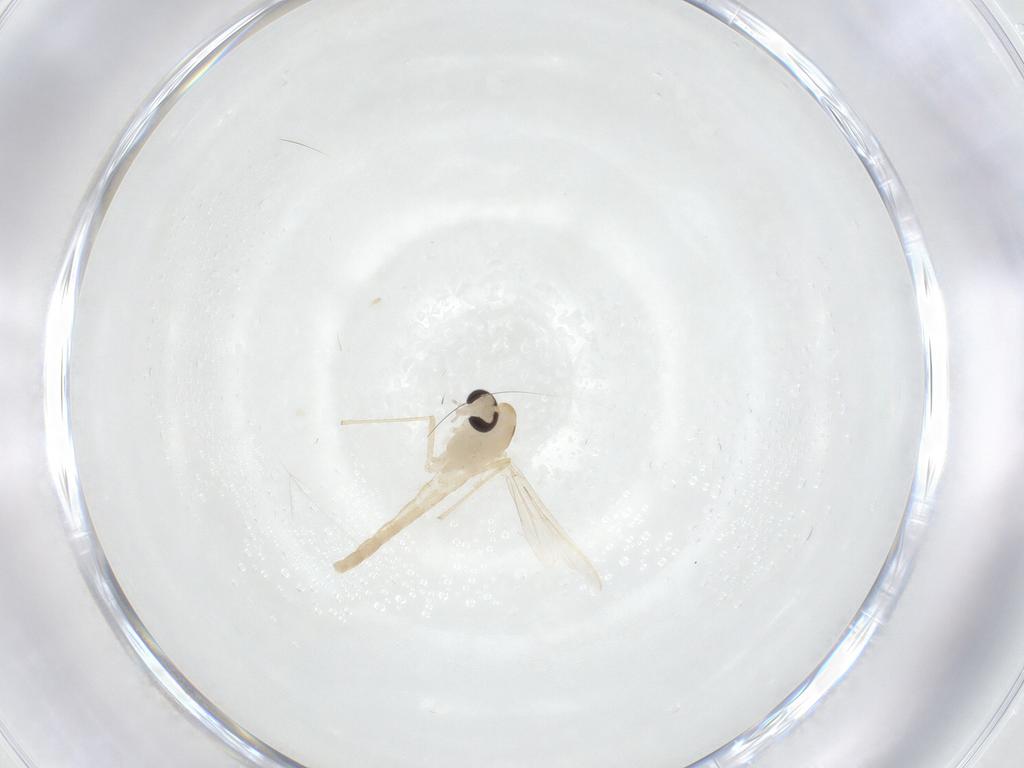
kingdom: Animalia
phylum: Arthropoda
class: Insecta
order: Diptera
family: Chironomidae
